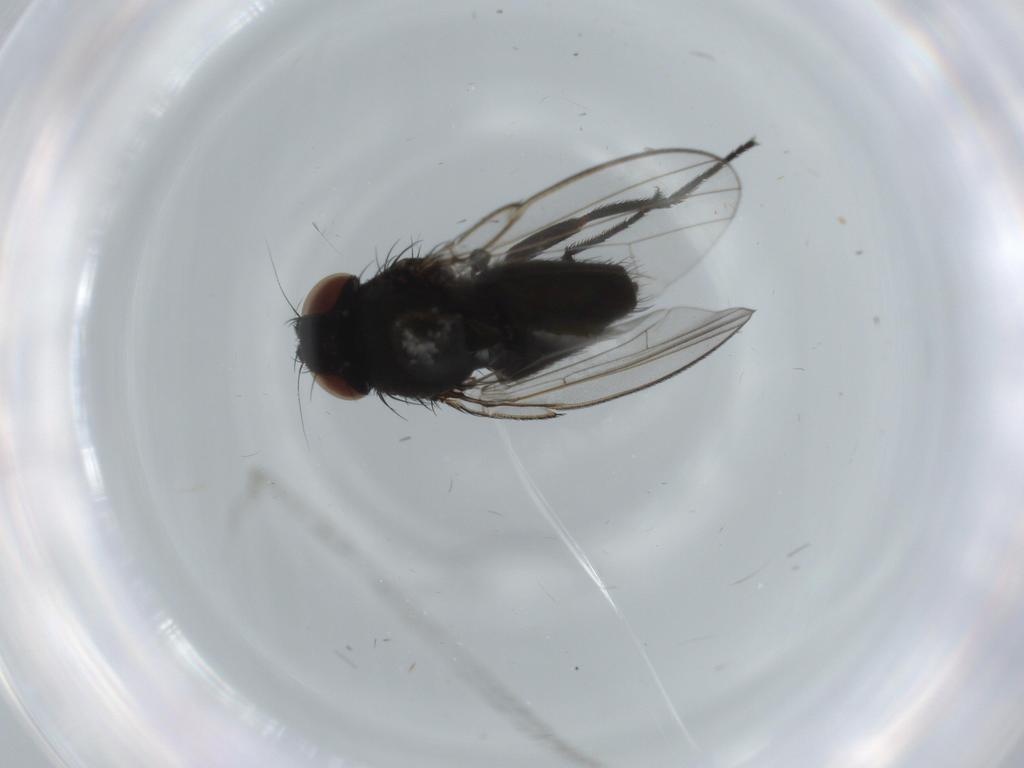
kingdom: Animalia
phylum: Arthropoda
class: Insecta
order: Diptera
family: Phoridae
